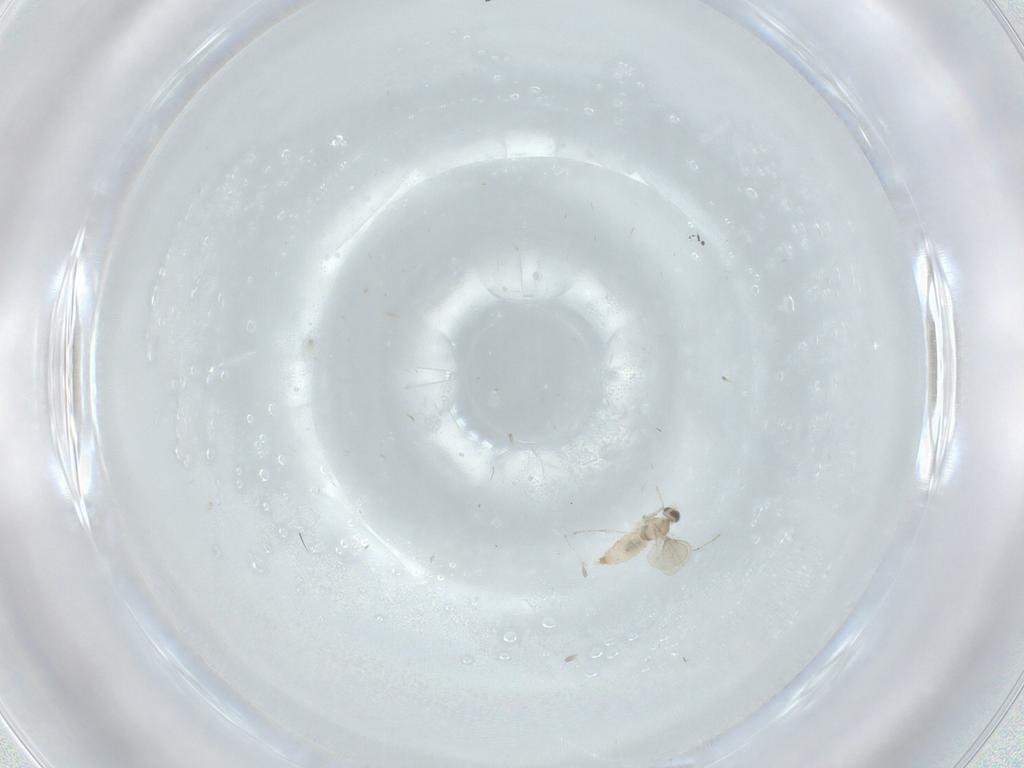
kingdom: Animalia
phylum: Arthropoda
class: Insecta
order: Diptera
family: Cecidomyiidae
